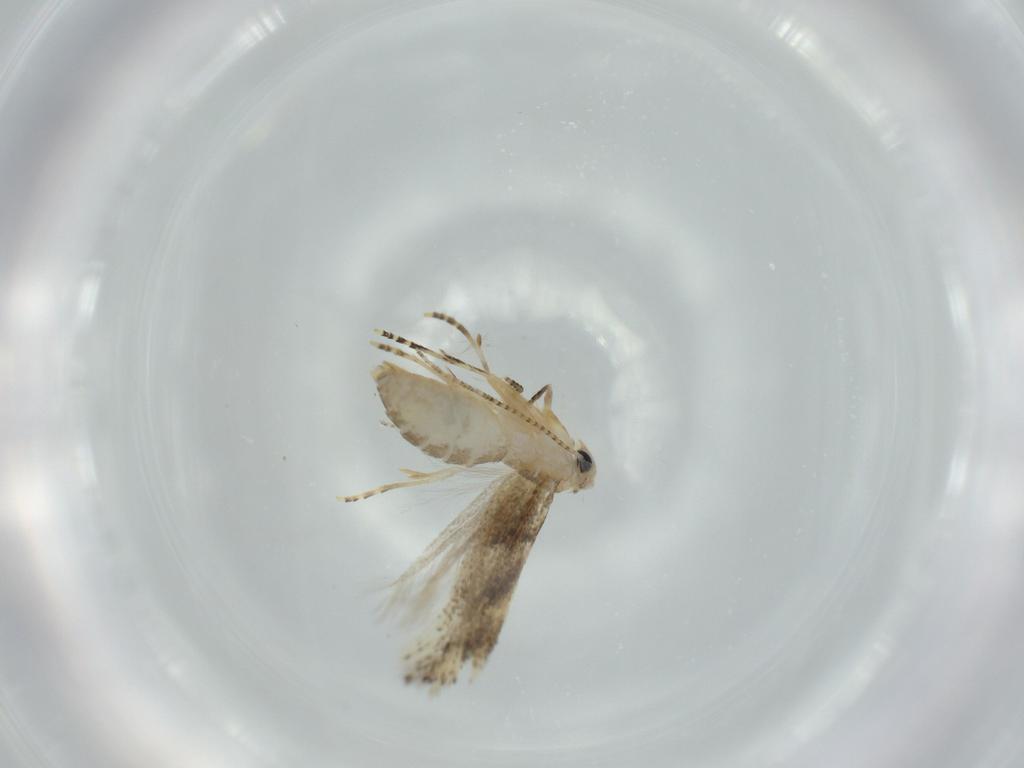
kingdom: Animalia
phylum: Arthropoda
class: Insecta
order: Lepidoptera
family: Bucculatricidae
